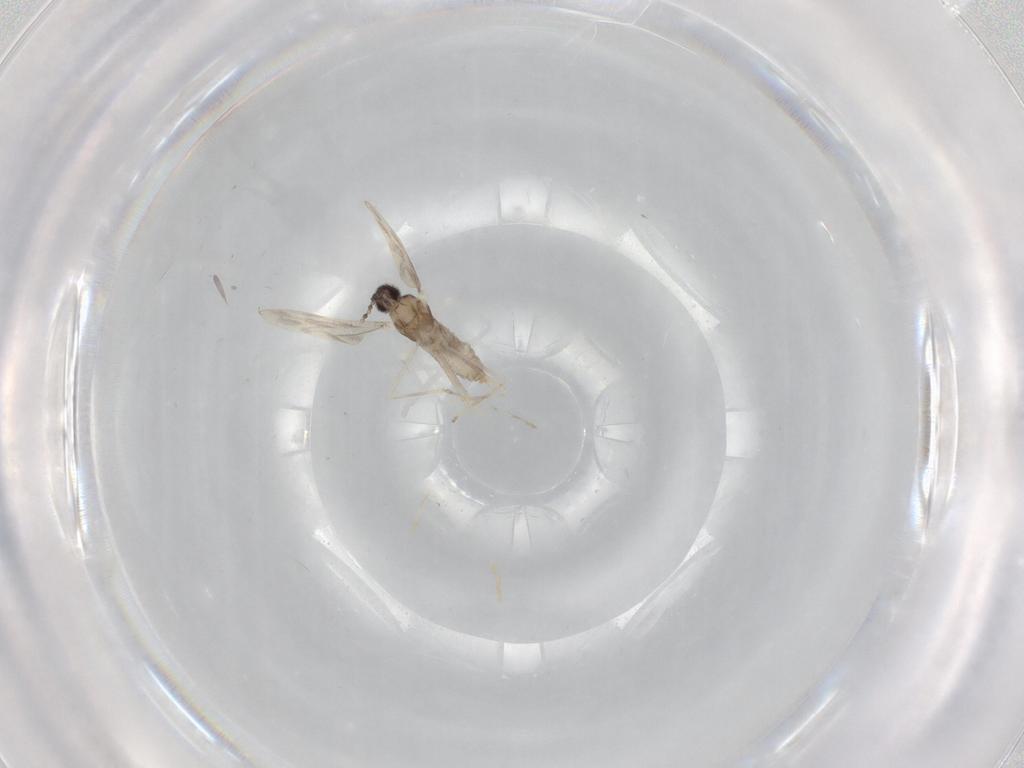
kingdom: Animalia
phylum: Arthropoda
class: Insecta
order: Diptera
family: Cecidomyiidae
